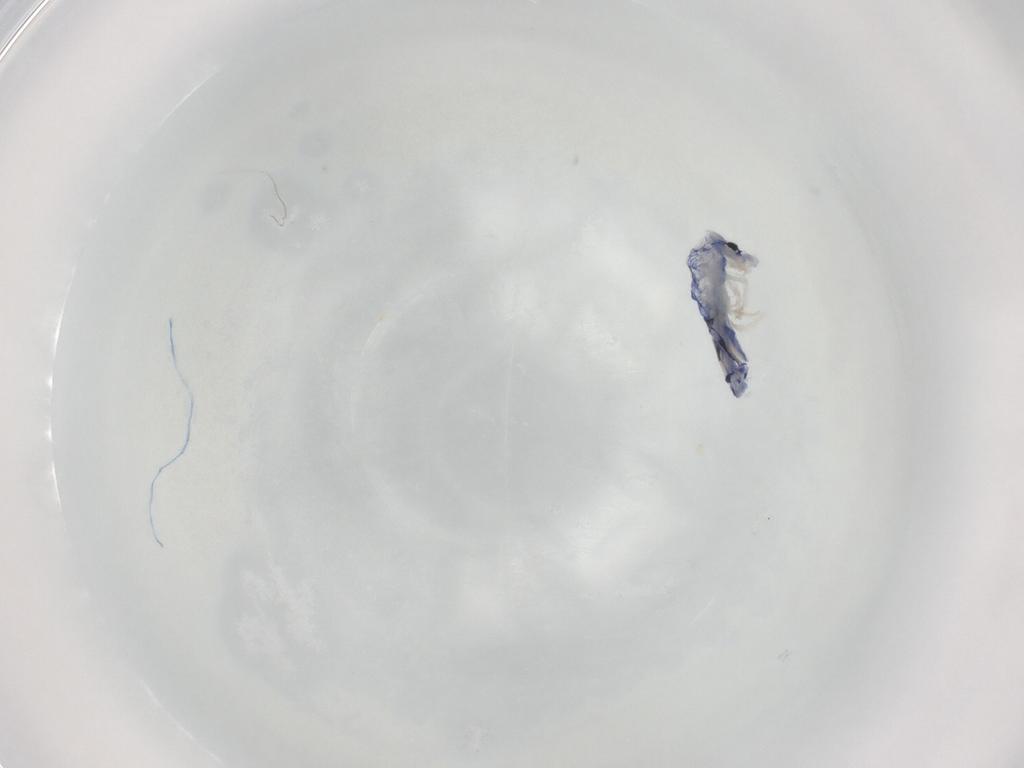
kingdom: Animalia
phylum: Arthropoda
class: Collembola
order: Entomobryomorpha
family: Entomobryidae
